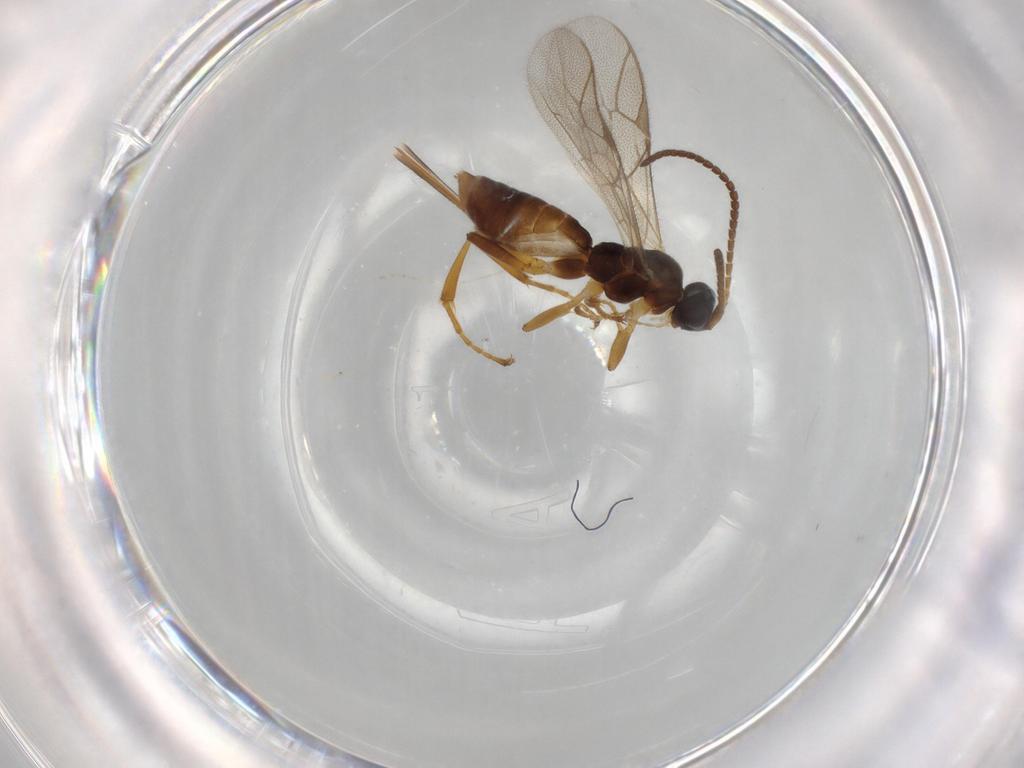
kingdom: Animalia
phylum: Arthropoda
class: Insecta
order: Hymenoptera
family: Ichneumonidae
